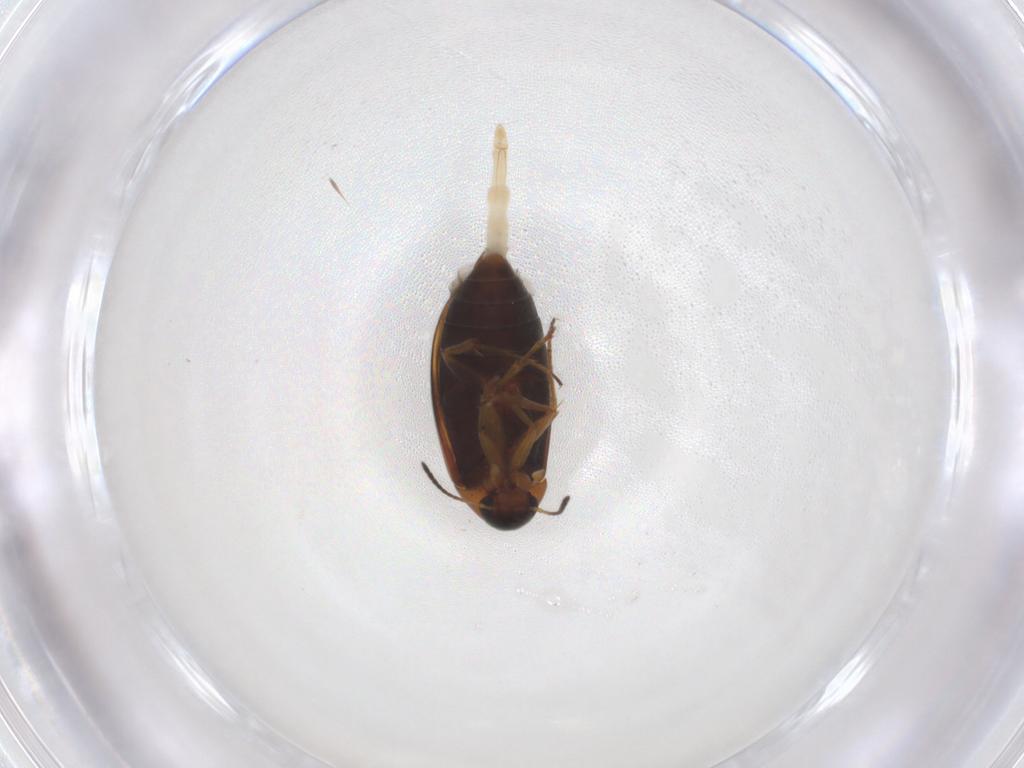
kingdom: Animalia
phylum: Arthropoda
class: Insecta
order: Coleoptera
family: Scraptiidae
